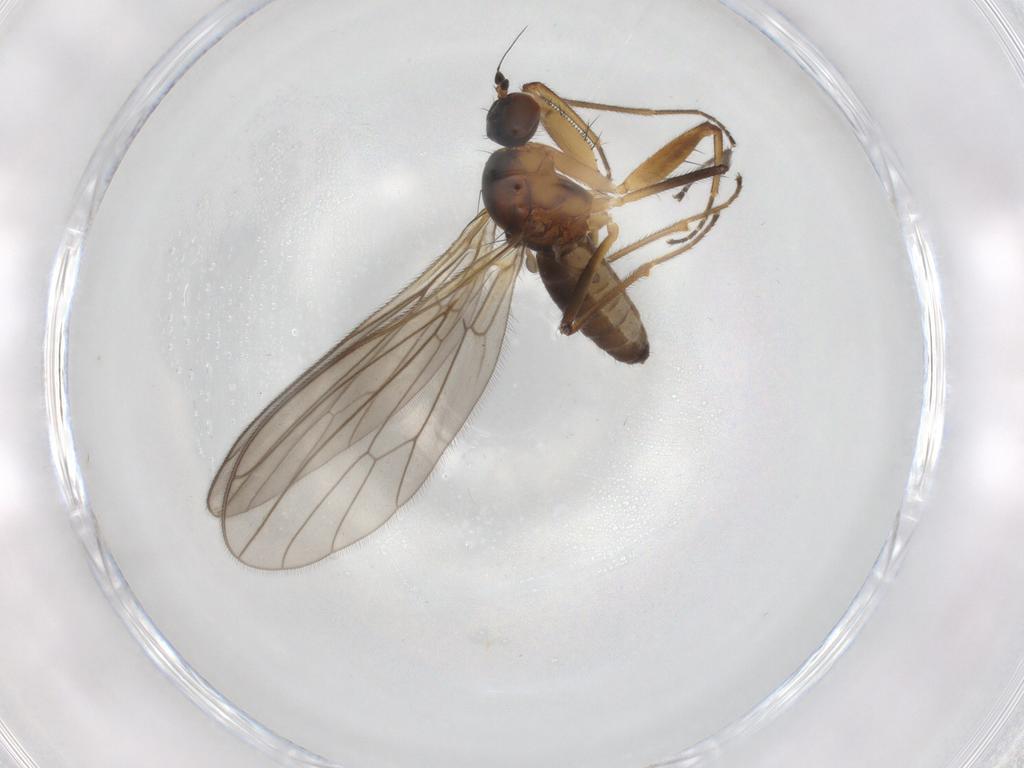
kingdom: Animalia
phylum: Arthropoda
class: Insecta
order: Diptera
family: Empididae
